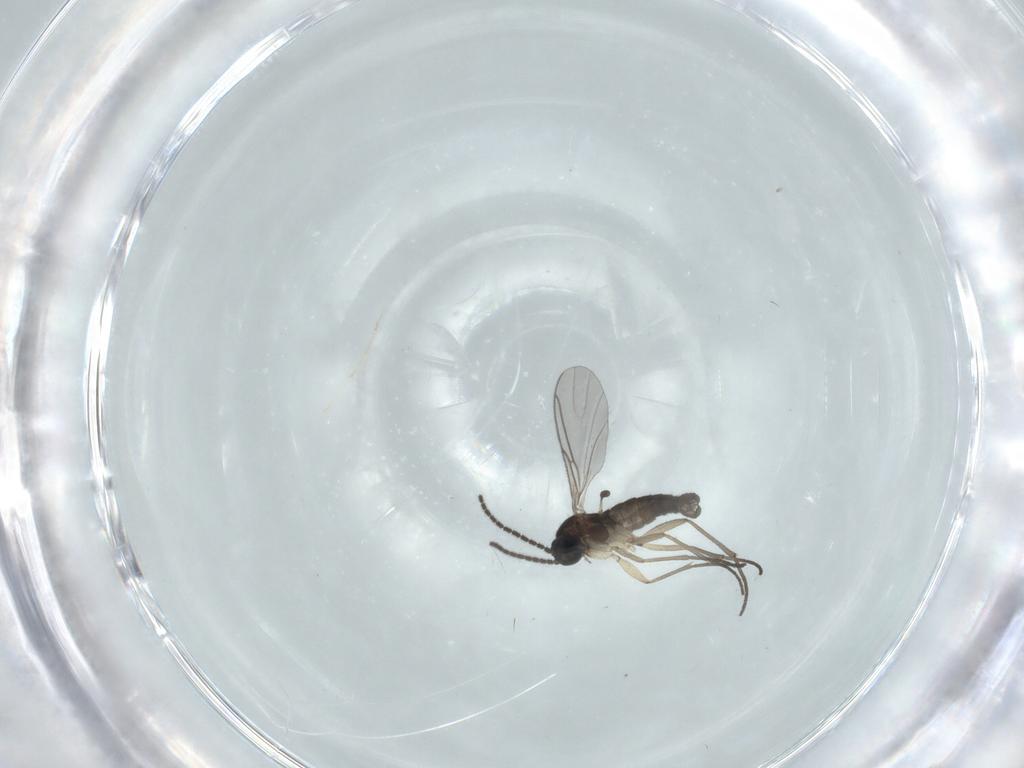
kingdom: Animalia
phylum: Arthropoda
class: Insecta
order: Diptera
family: Sciaridae
